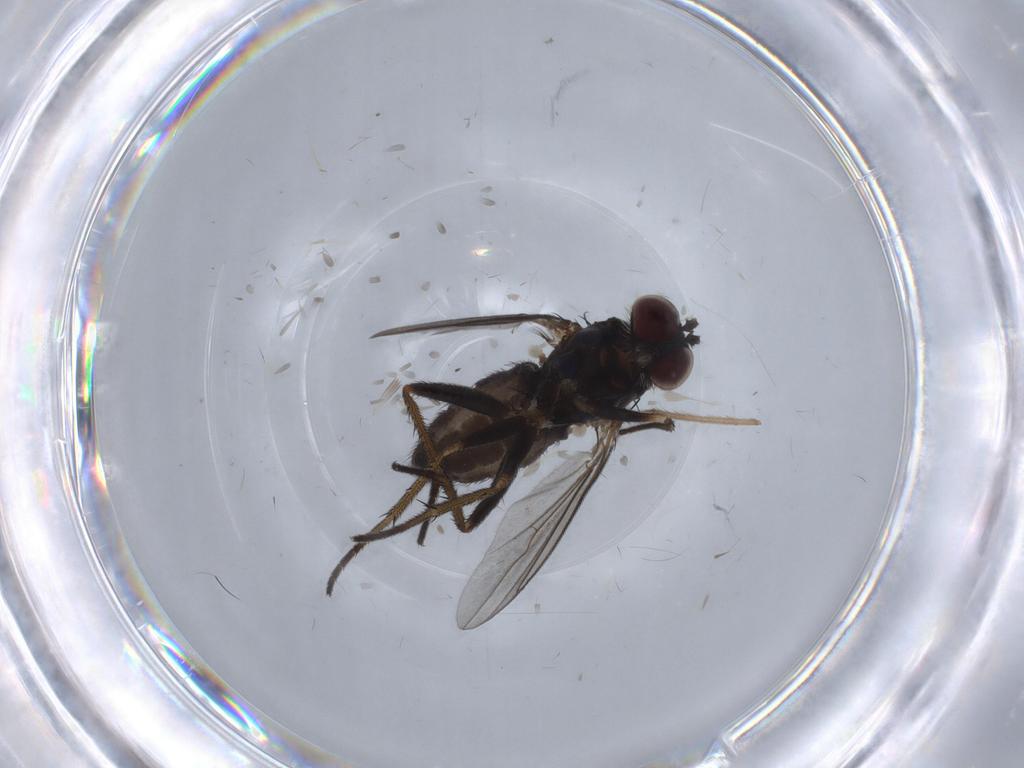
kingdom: Animalia
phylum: Arthropoda
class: Insecta
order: Diptera
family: Dolichopodidae
